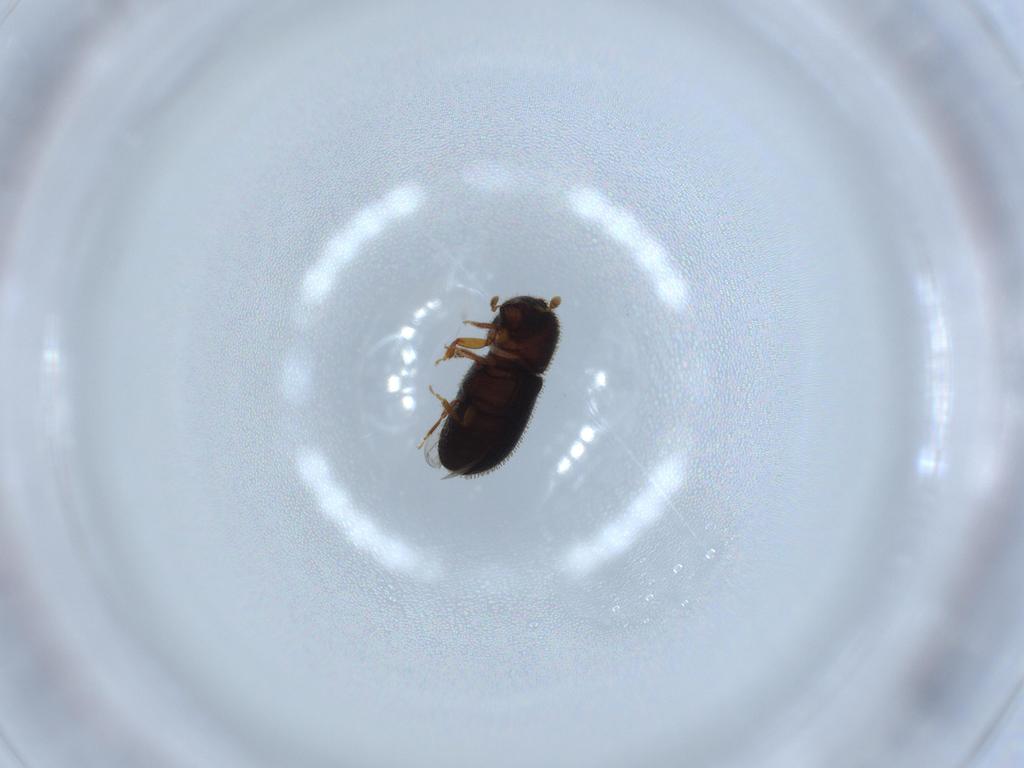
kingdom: Animalia
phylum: Arthropoda
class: Insecta
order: Coleoptera
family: Curculionidae
